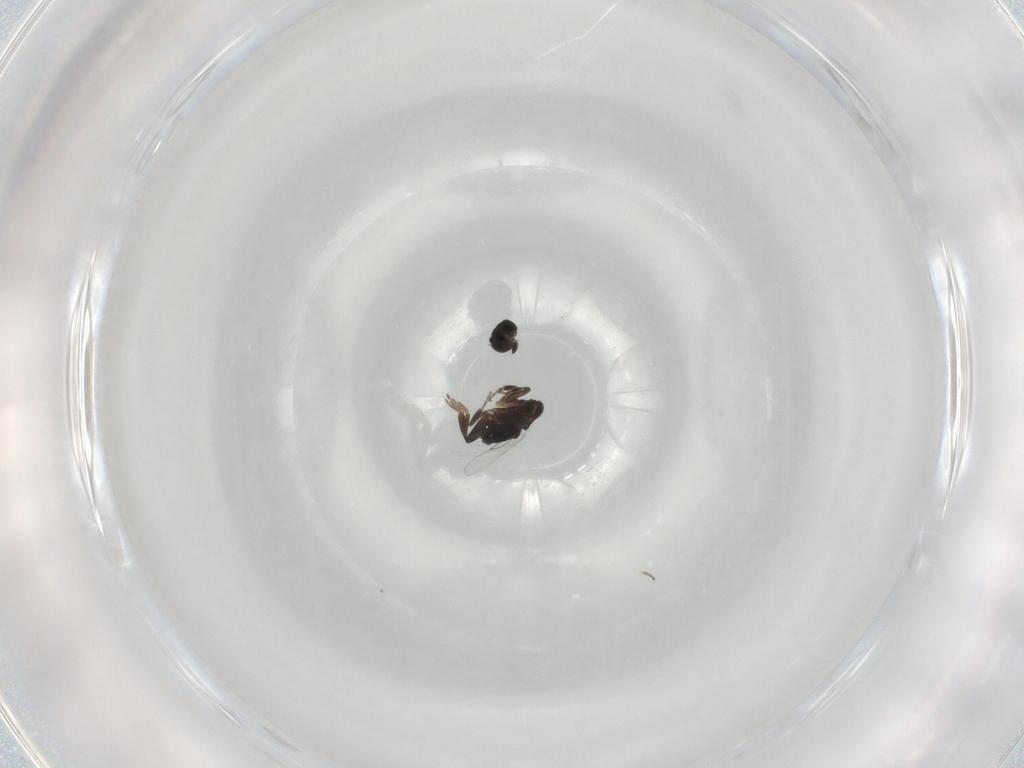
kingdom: Animalia
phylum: Arthropoda
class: Insecta
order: Diptera
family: Phoridae
